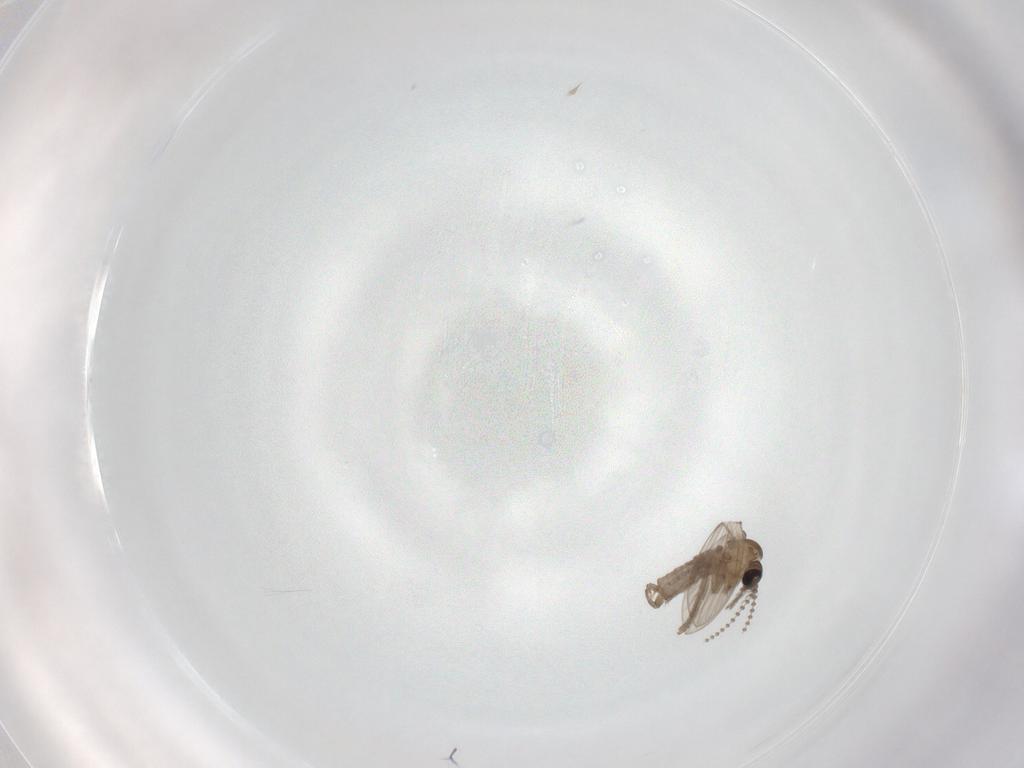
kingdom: Animalia
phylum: Arthropoda
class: Insecta
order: Diptera
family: Psychodidae
